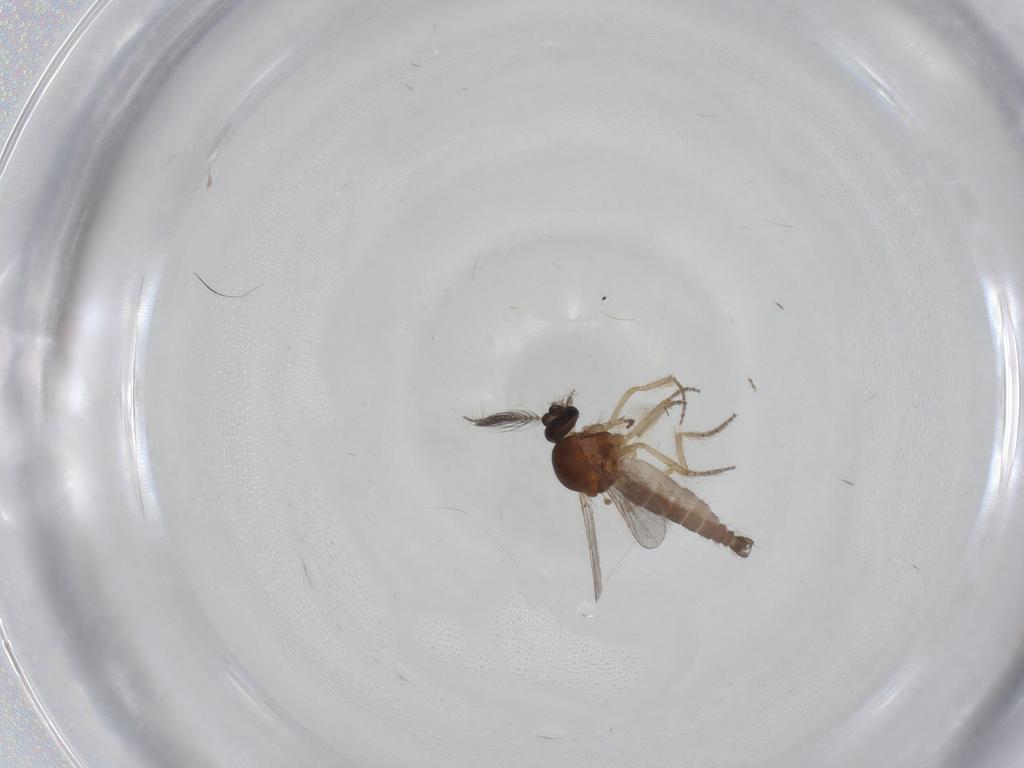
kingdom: Animalia
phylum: Arthropoda
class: Insecta
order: Diptera
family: Ceratopogonidae
